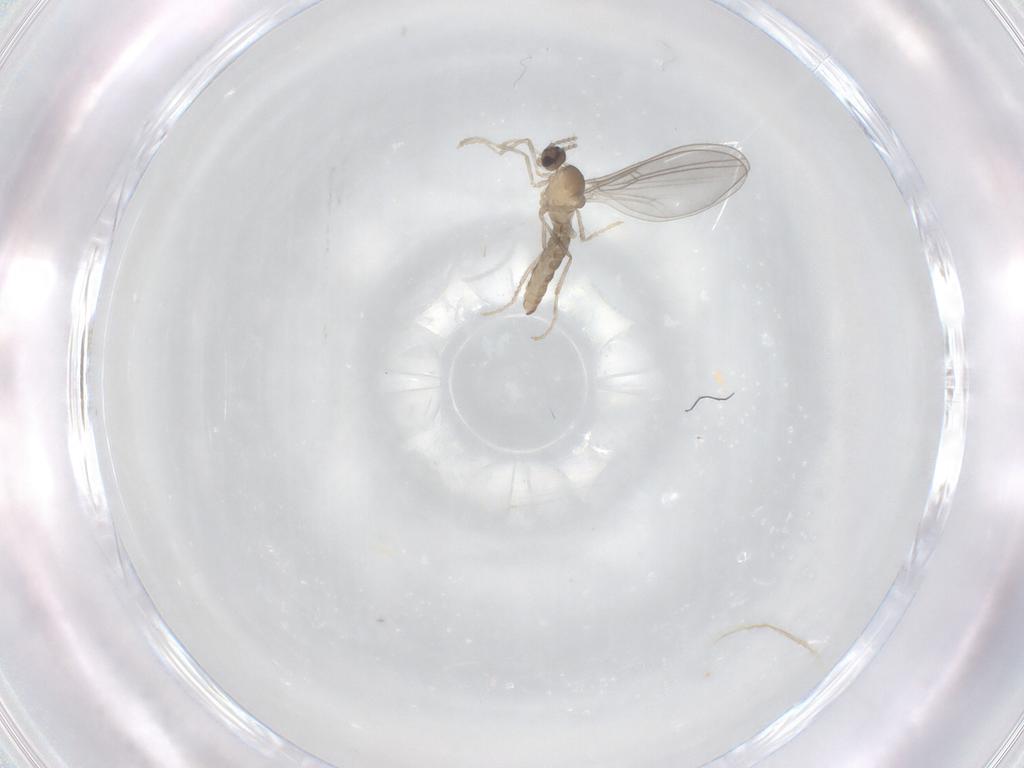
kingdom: Animalia
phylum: Arthropoda
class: Insecta
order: Diptera
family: Cecidomyiidae
